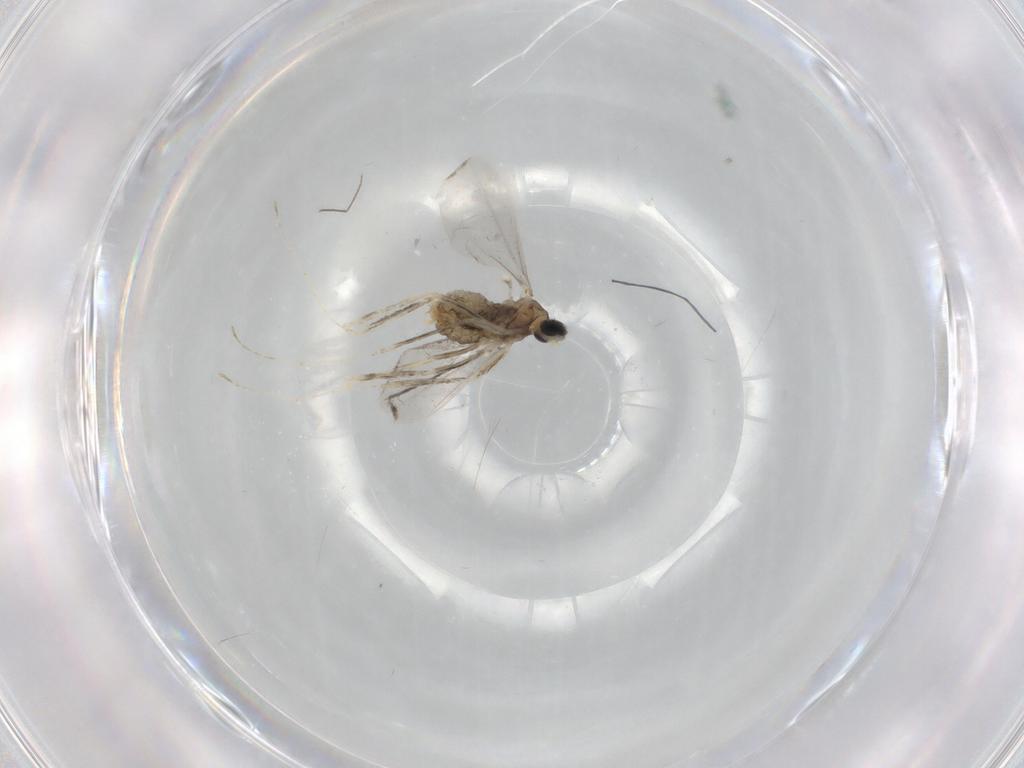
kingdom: Animalia
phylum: Arthropoda
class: Insecta
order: Diptera
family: Cecidomyiidae
